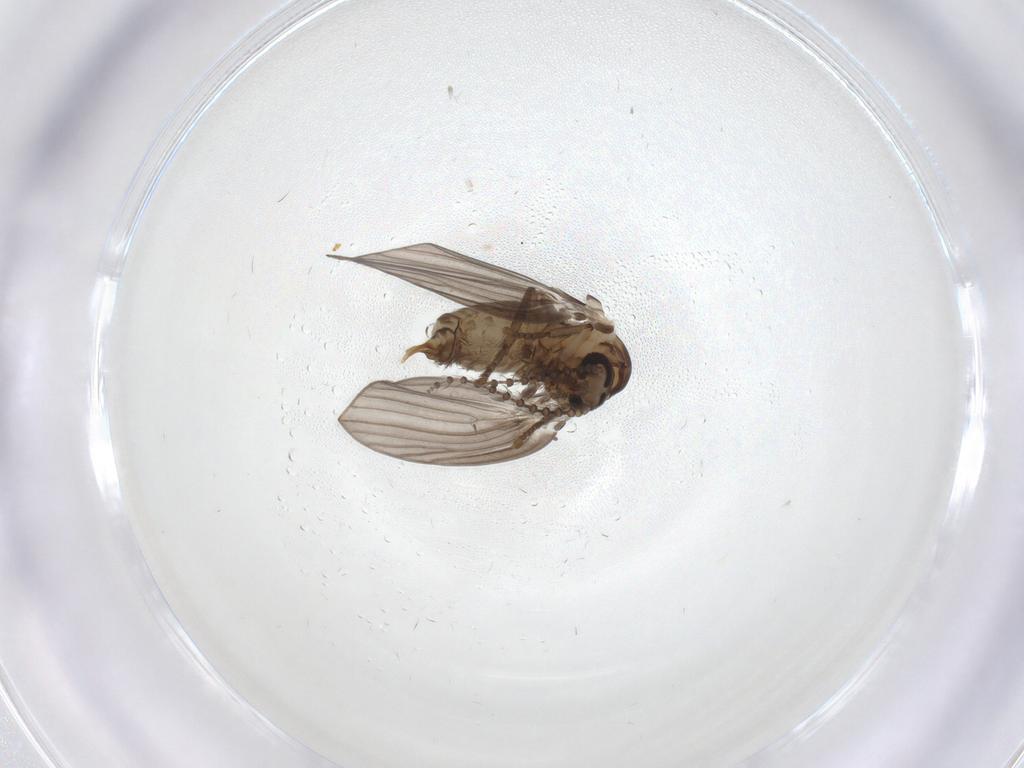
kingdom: Animalia
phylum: Arthropoda
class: Insecta
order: Diptera
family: Psychodidae
